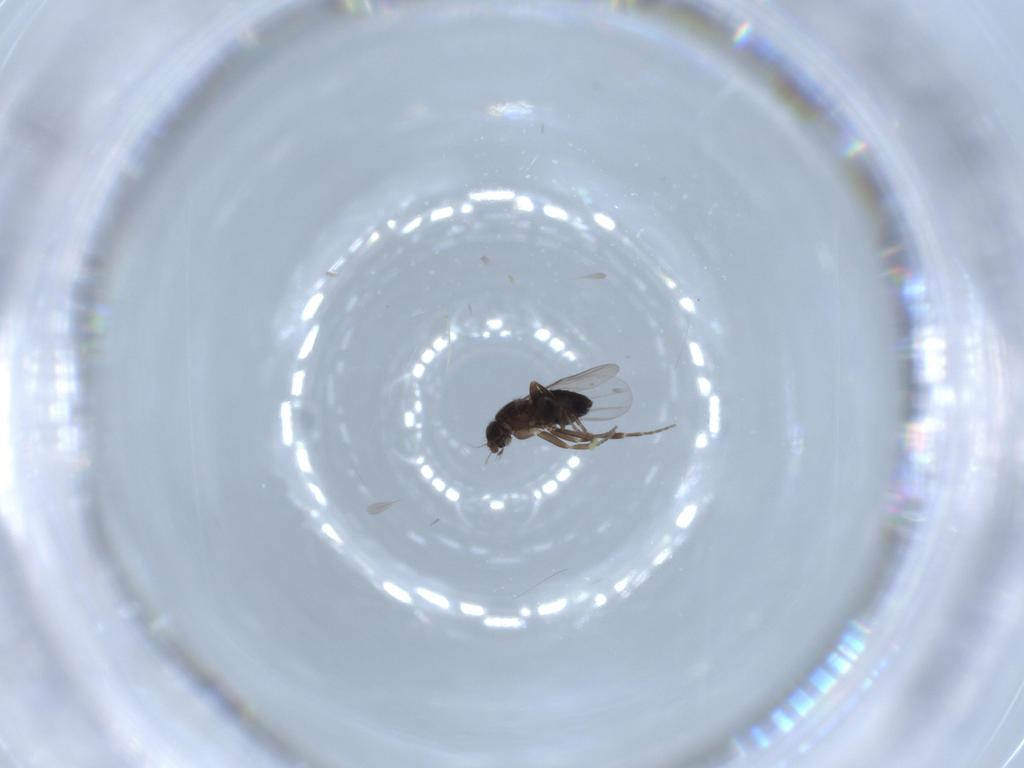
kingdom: Animalia
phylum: Arthropoda
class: Insecta
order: Diptera
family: Phoridae
